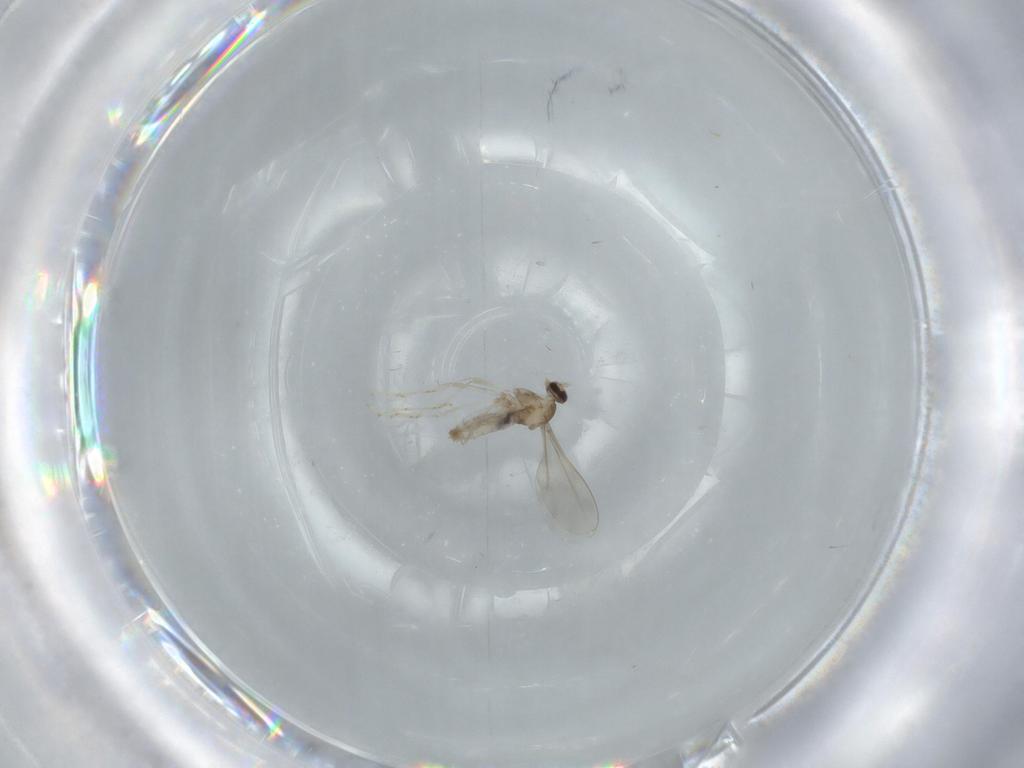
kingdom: Animalia
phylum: Arthropoda
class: Insecta
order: Diptera
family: Cecidomyiidae
